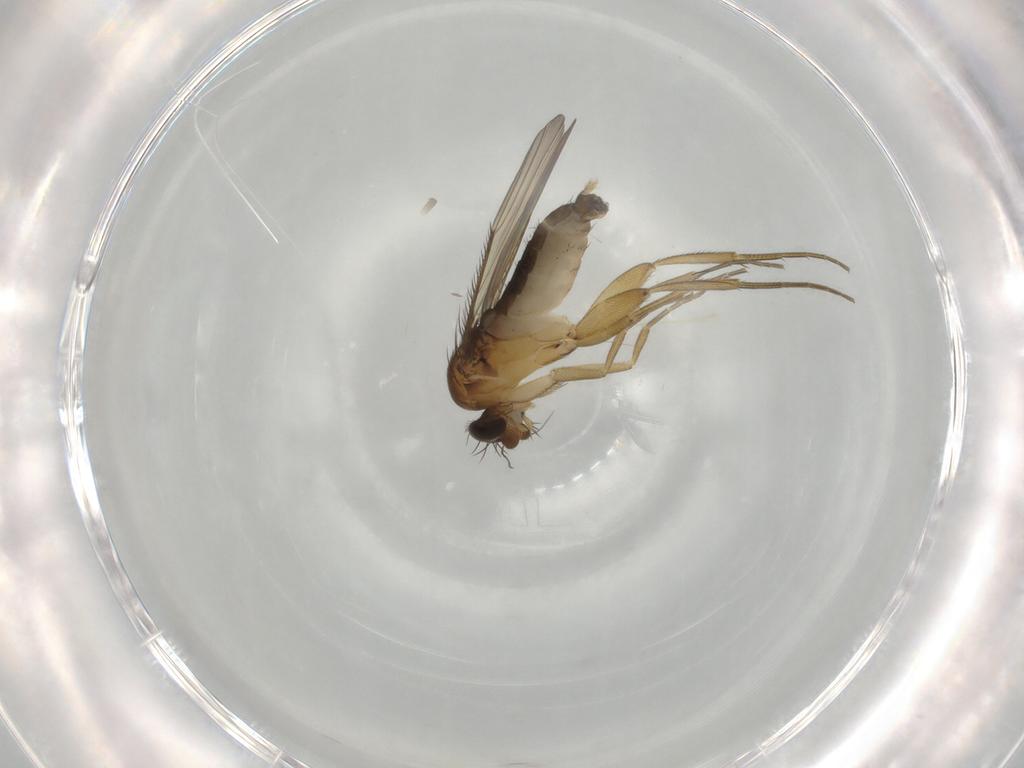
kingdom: Animalia
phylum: Arthropoda
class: Insecta
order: Diptera
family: Phoridae
